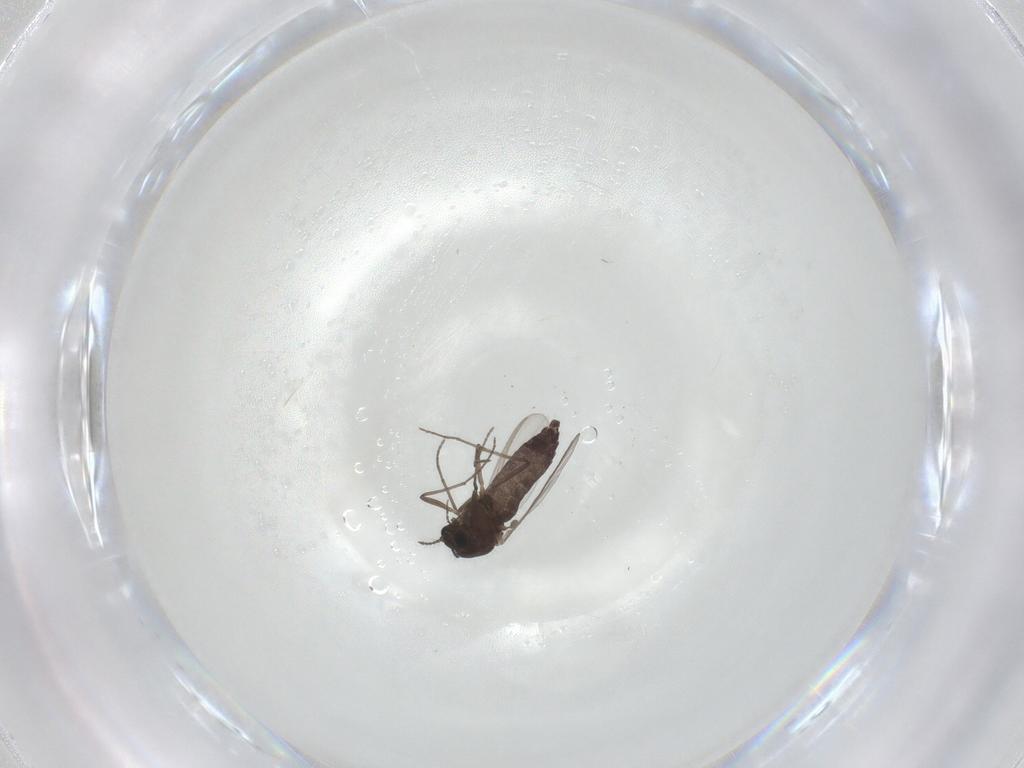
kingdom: Animalia
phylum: Arthropoda
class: Insecta
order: Diptera
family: Chironomidae
